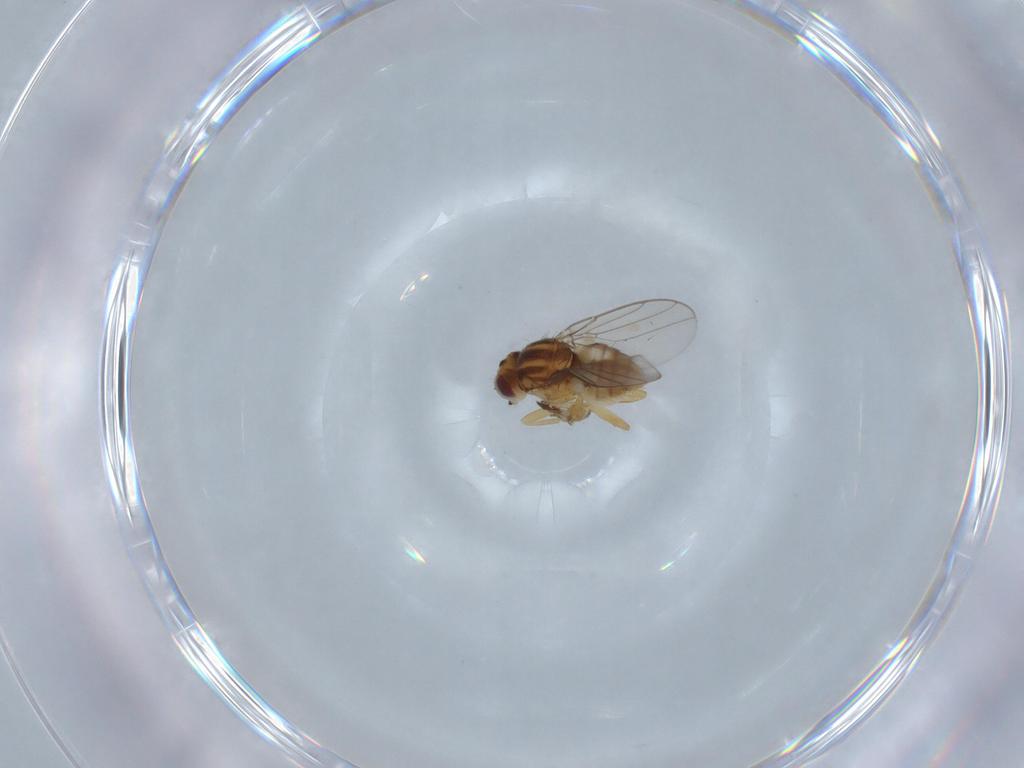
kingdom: Animalia
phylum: Arthropoda
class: Insecta
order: Diptera
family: Chloropidae
